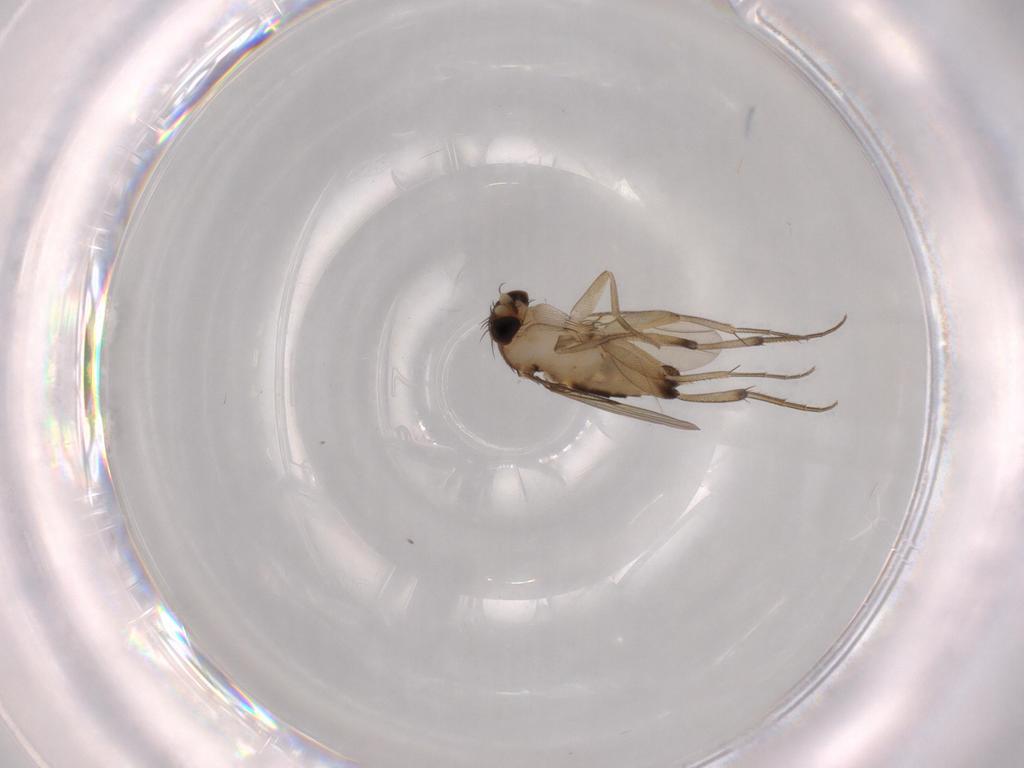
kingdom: Animalia
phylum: Arthropoda
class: Insecta
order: Diptera
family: Phoridae
